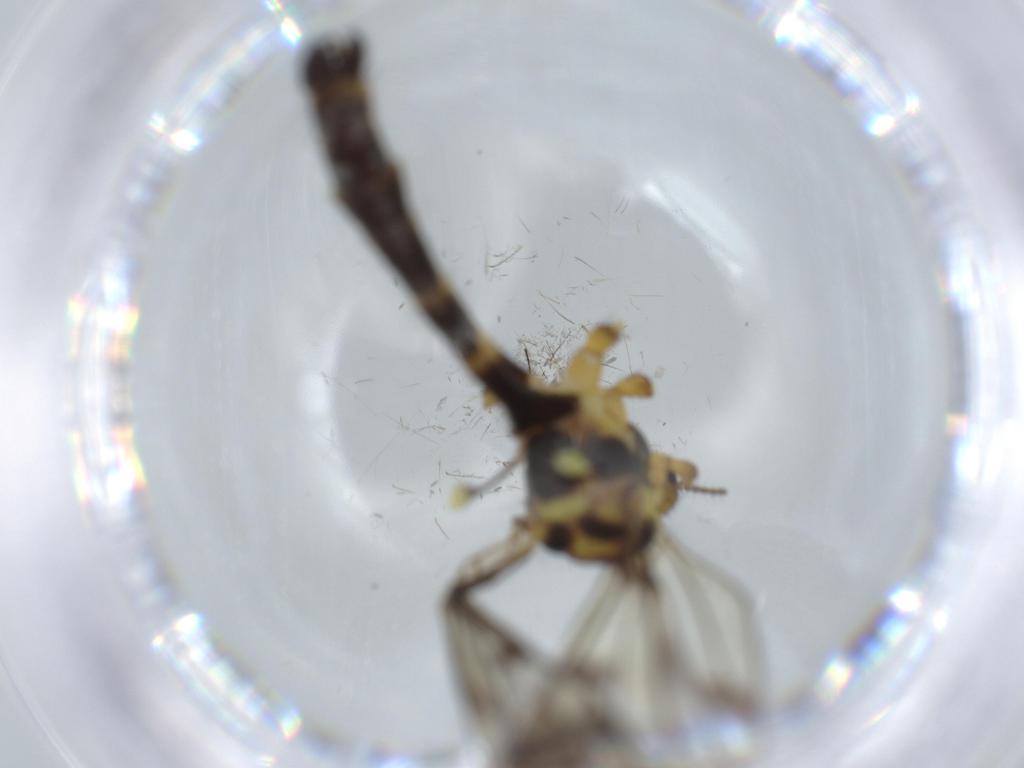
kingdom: Animalia
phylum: Arthropoda
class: Insecta
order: Diptera
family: Limoniidae
